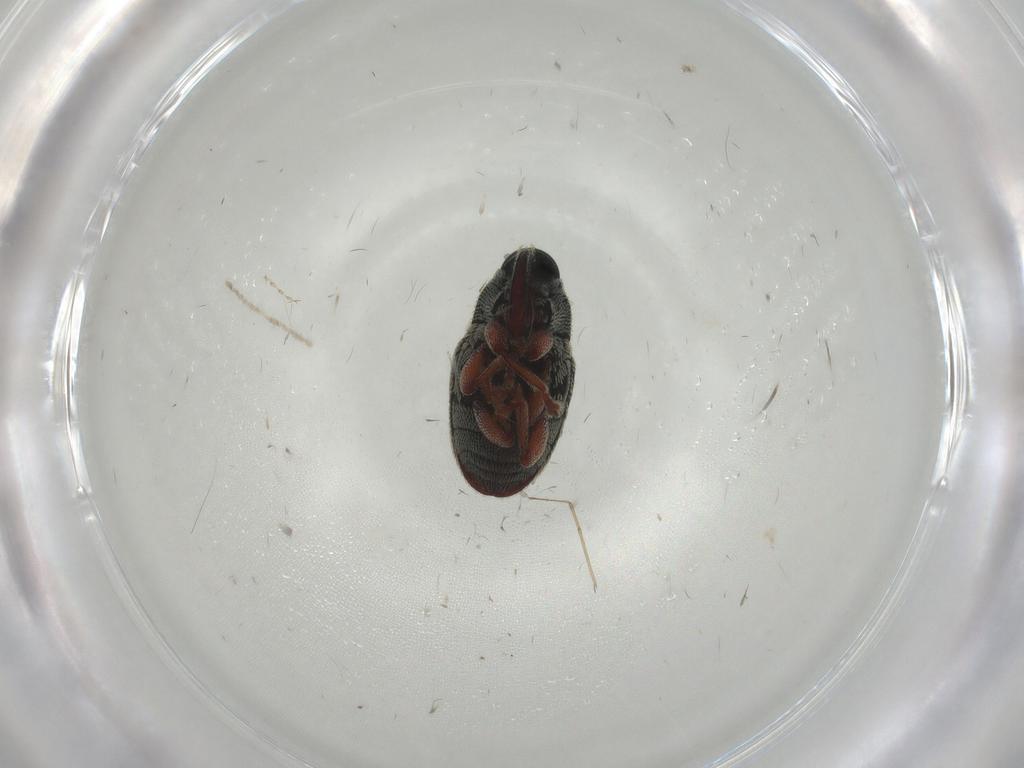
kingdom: Animalia
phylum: Arthropoda
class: Insecta
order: Coleoptera
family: Curculionidae
